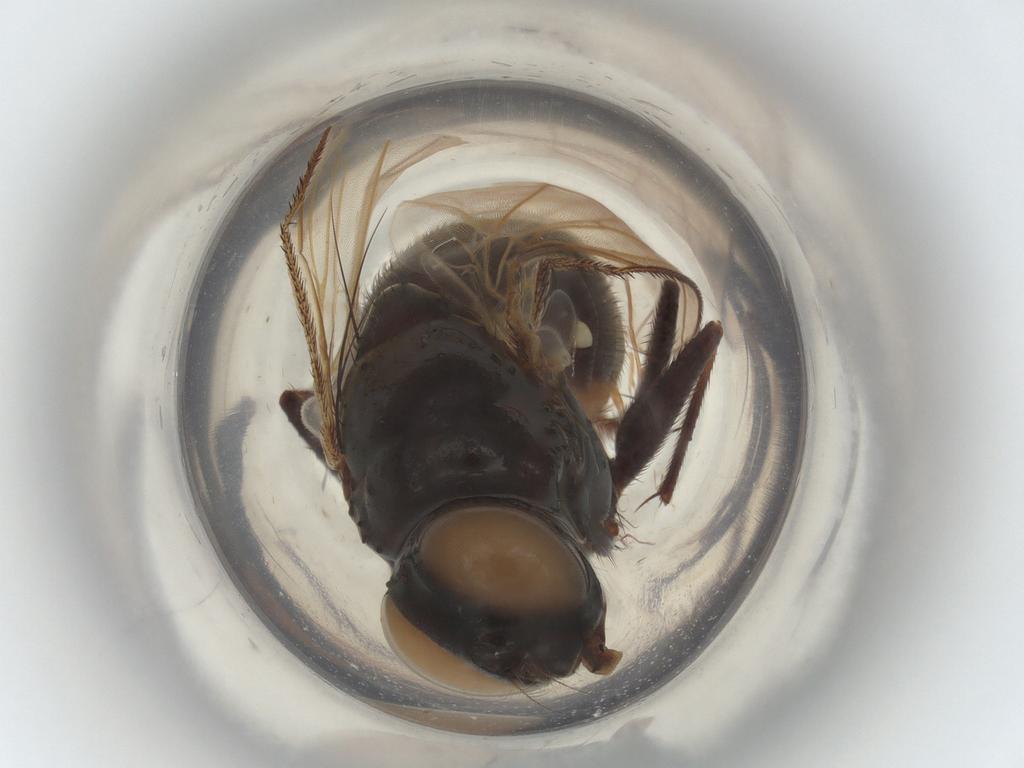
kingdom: Animalia
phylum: Arthropoda
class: Insecta
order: Diptera
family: Muscidae
